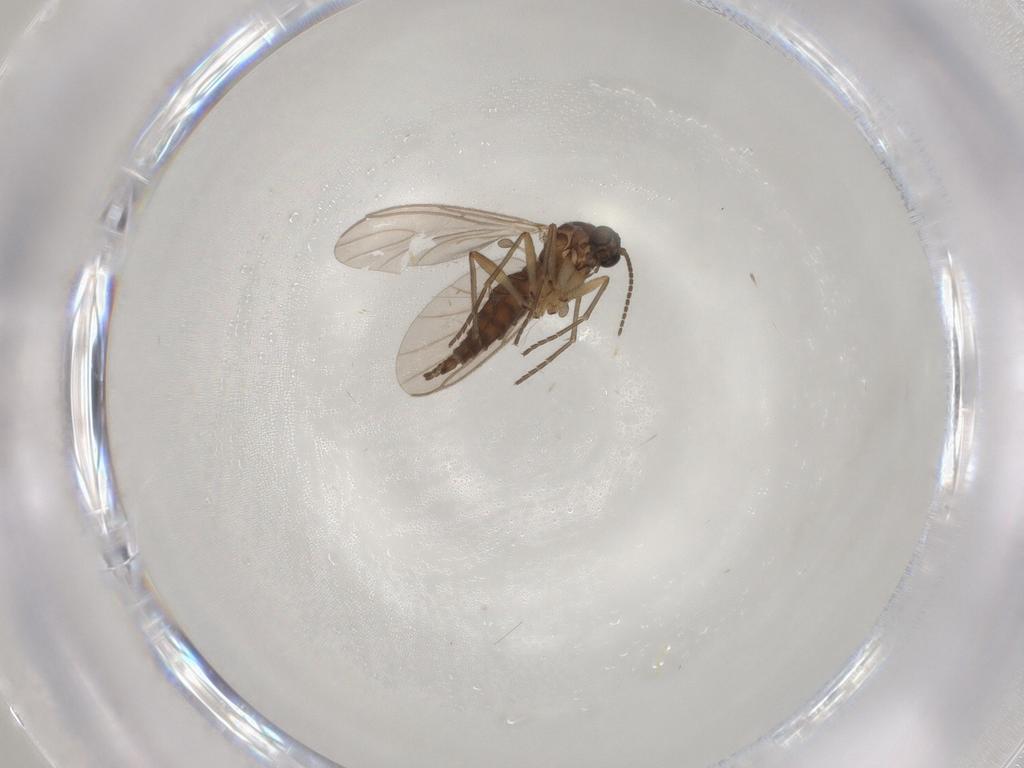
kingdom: Animalia
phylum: Arthropoda
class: Insecta
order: Diptera
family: Sciaridae
